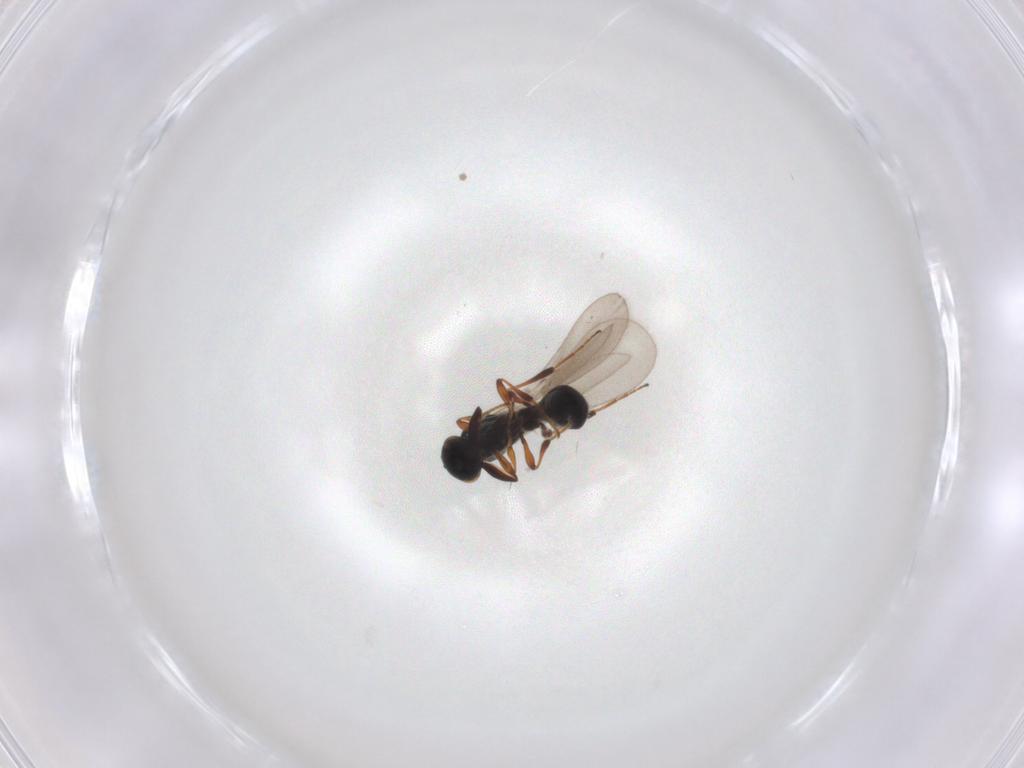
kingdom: Animalia
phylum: Arthropoda
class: Insecta
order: Hymenoptera
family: Platygastridae
